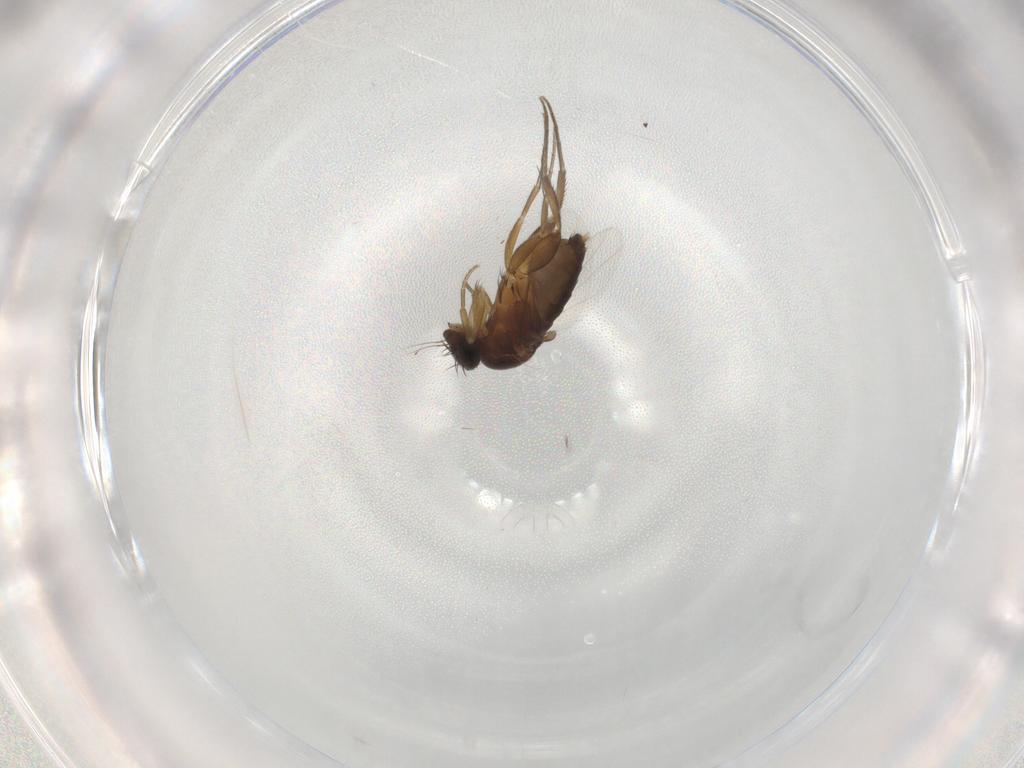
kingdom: Animalia
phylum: Arthropoda
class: Insecta
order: Diptera
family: Phoridae
